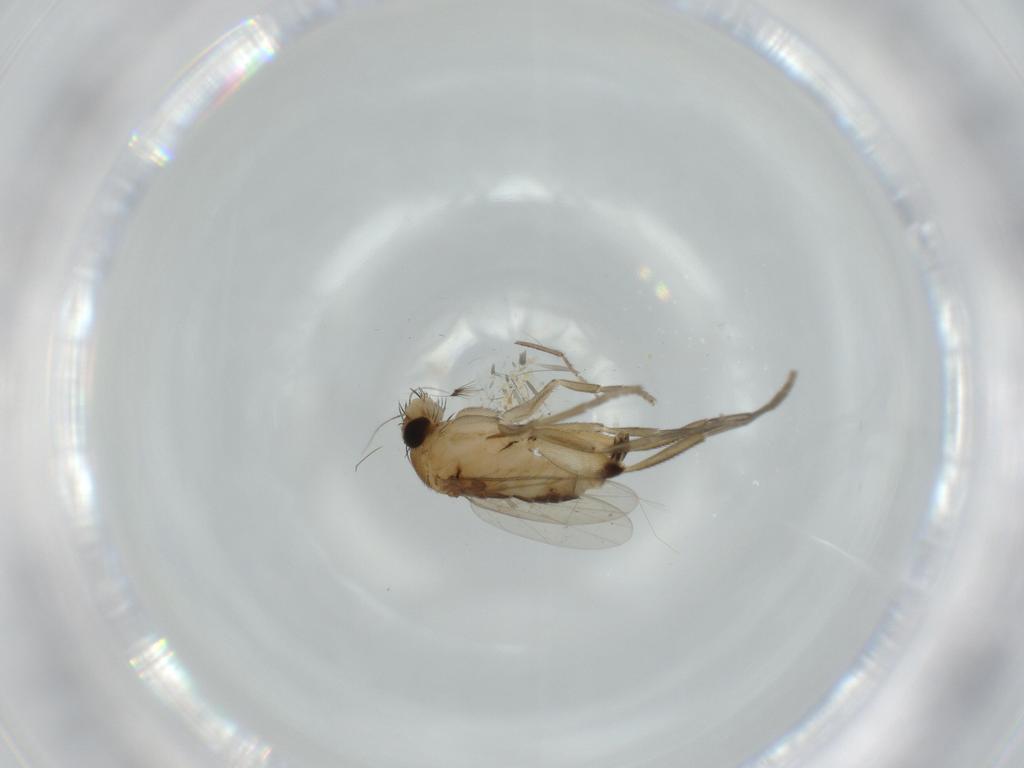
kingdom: Animalia
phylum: Arthropoda
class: Insecta
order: Diptera
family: Phoridae
